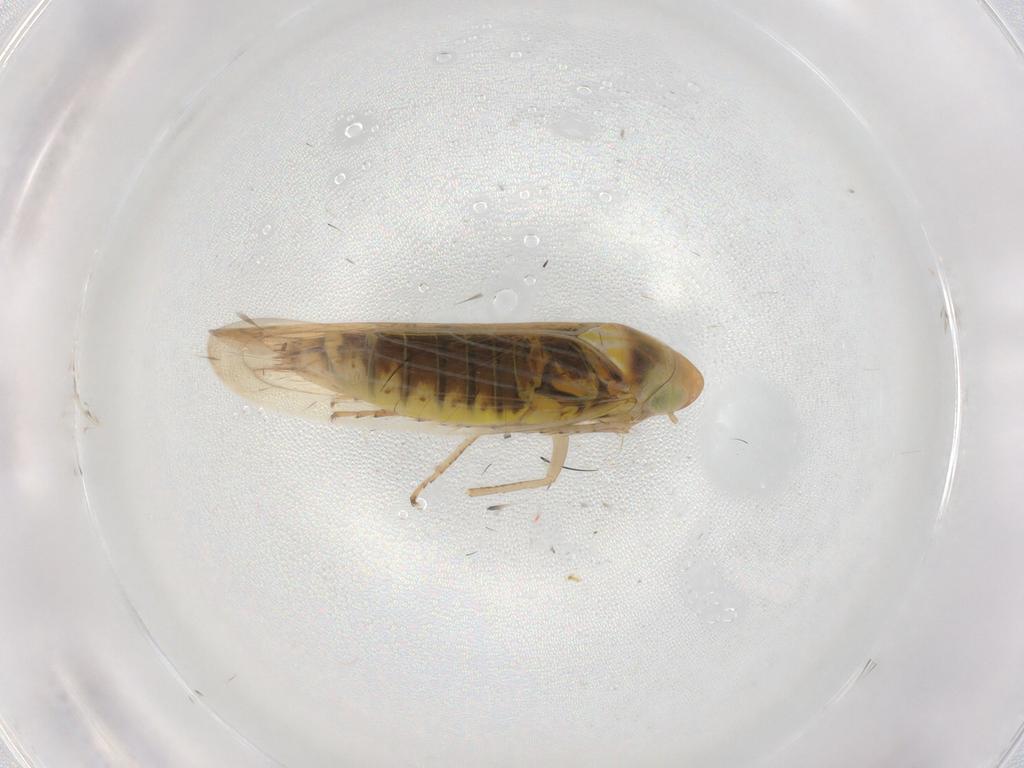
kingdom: Animalia
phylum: Arthropoda
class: Insecta
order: Hemiptera
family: Cicadellidae
